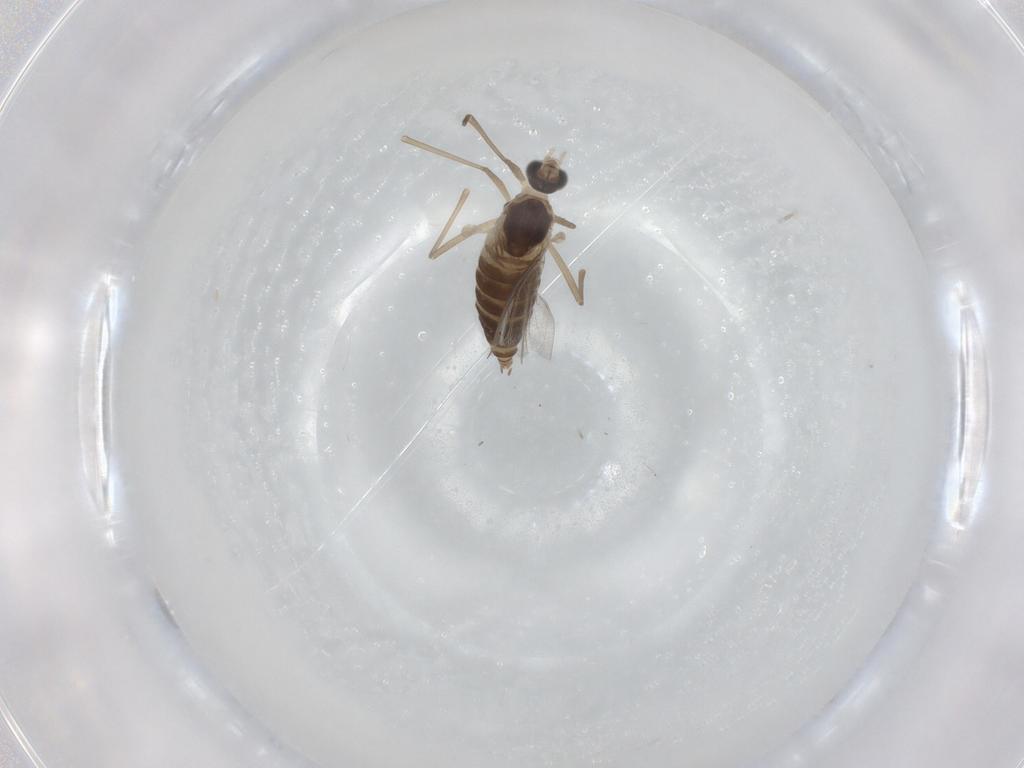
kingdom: Animalia
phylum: Arthropoda
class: Insecta
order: Diptera
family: Cecidomyiidae
